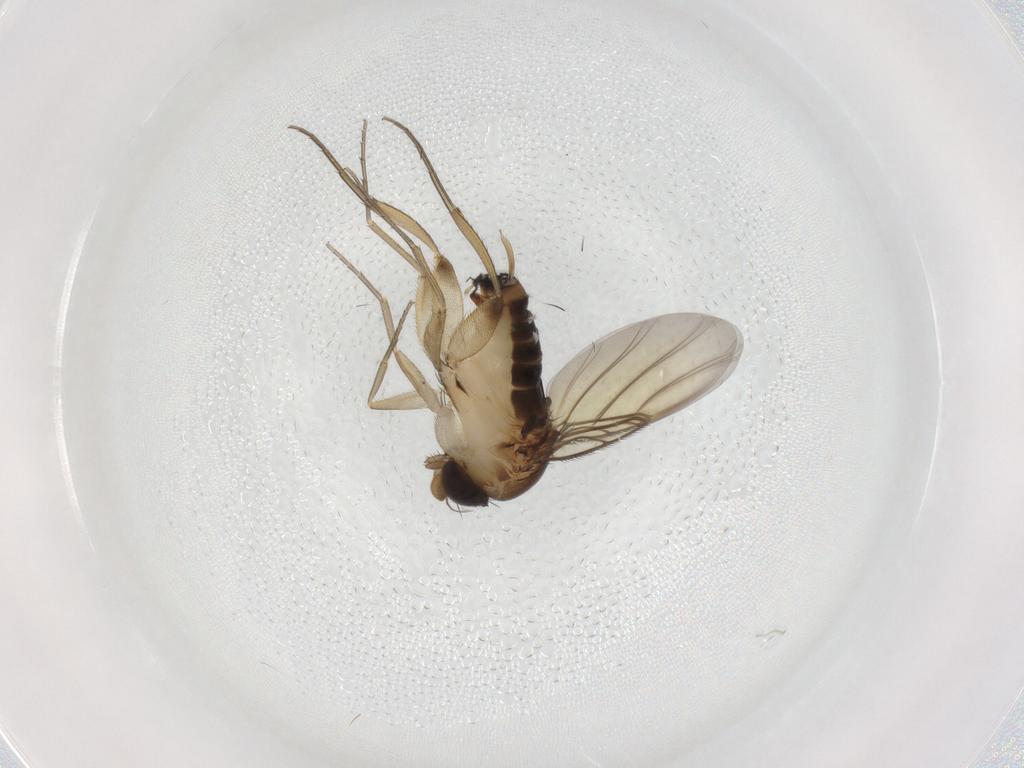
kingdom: Animalia
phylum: Arthropoda
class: Insecta
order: Diptera
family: Phoridae
